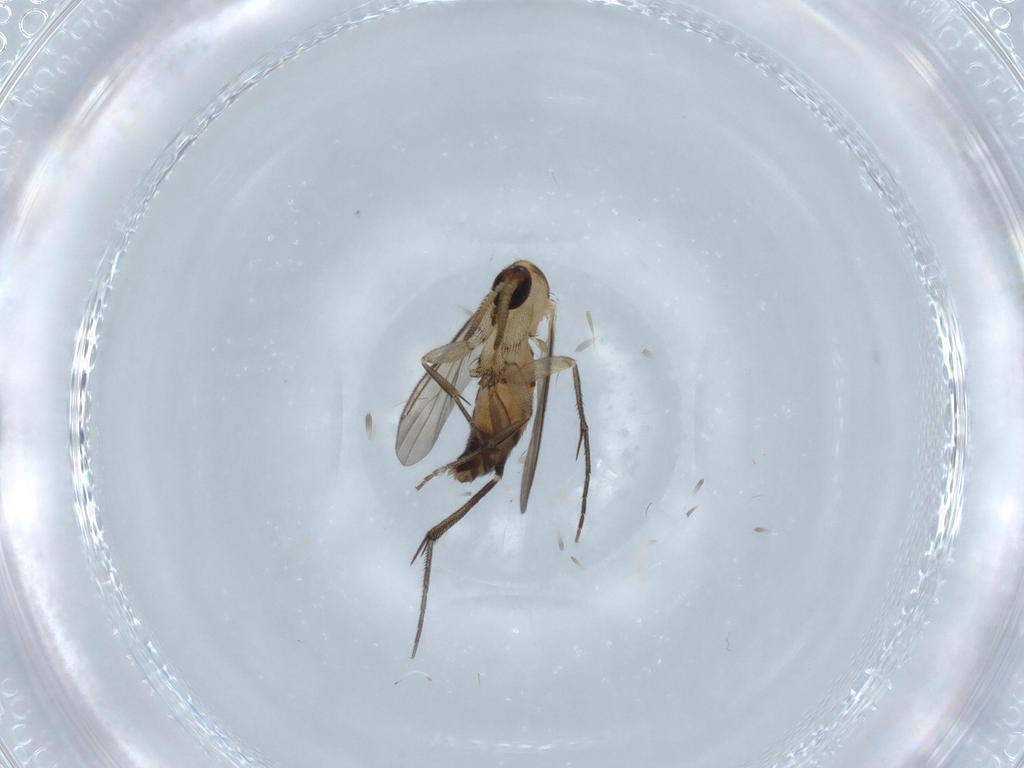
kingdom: Animalia
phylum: Arthropoda
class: Insecta
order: Diptera
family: Mycetophilidae
